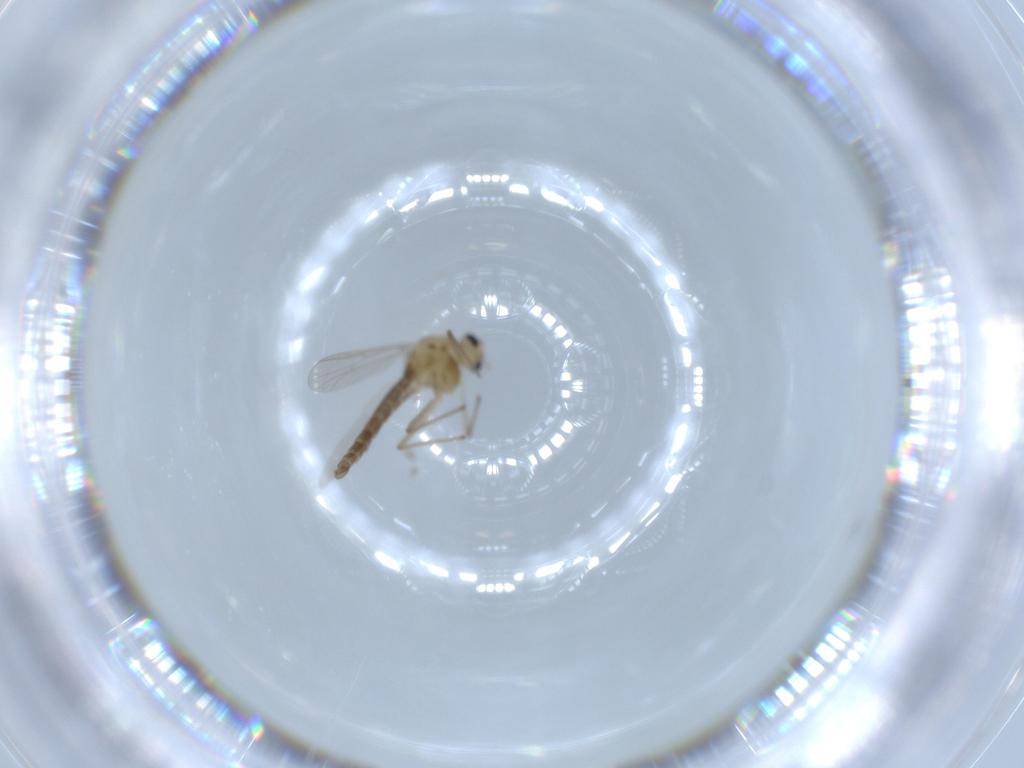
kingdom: Animalia
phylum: Arthropoda
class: Insecta
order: Diptera
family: Chironomidae
